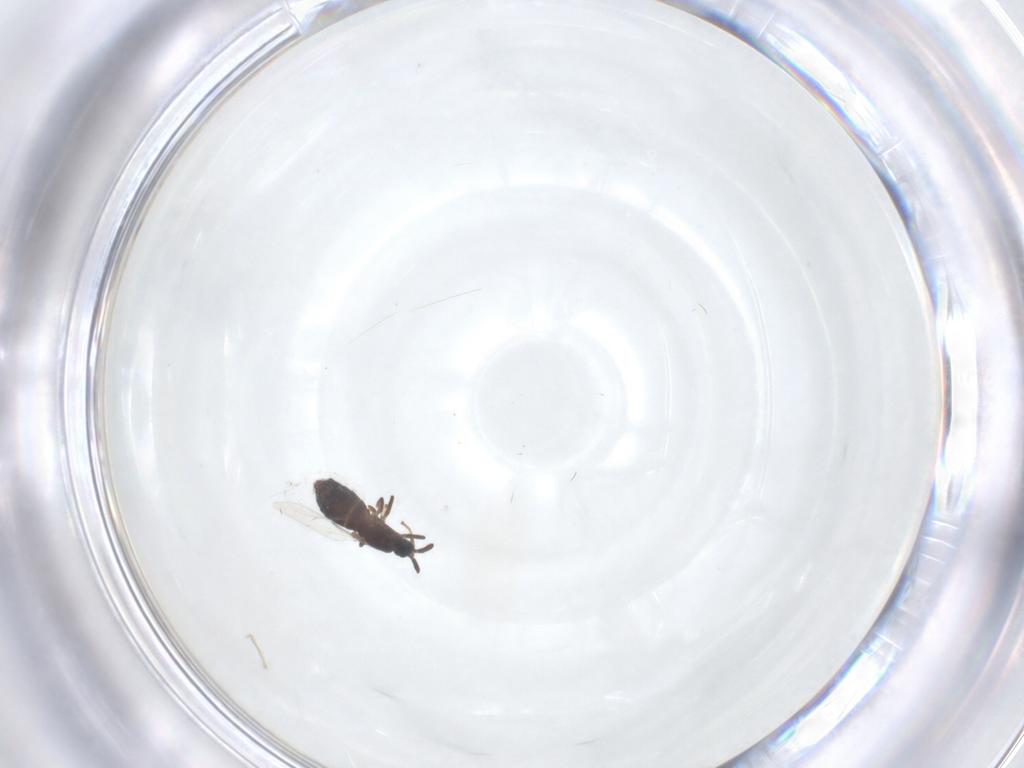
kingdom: Animalia
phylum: Arthropoda
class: Insecta
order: Diptera
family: Scatopsidae
